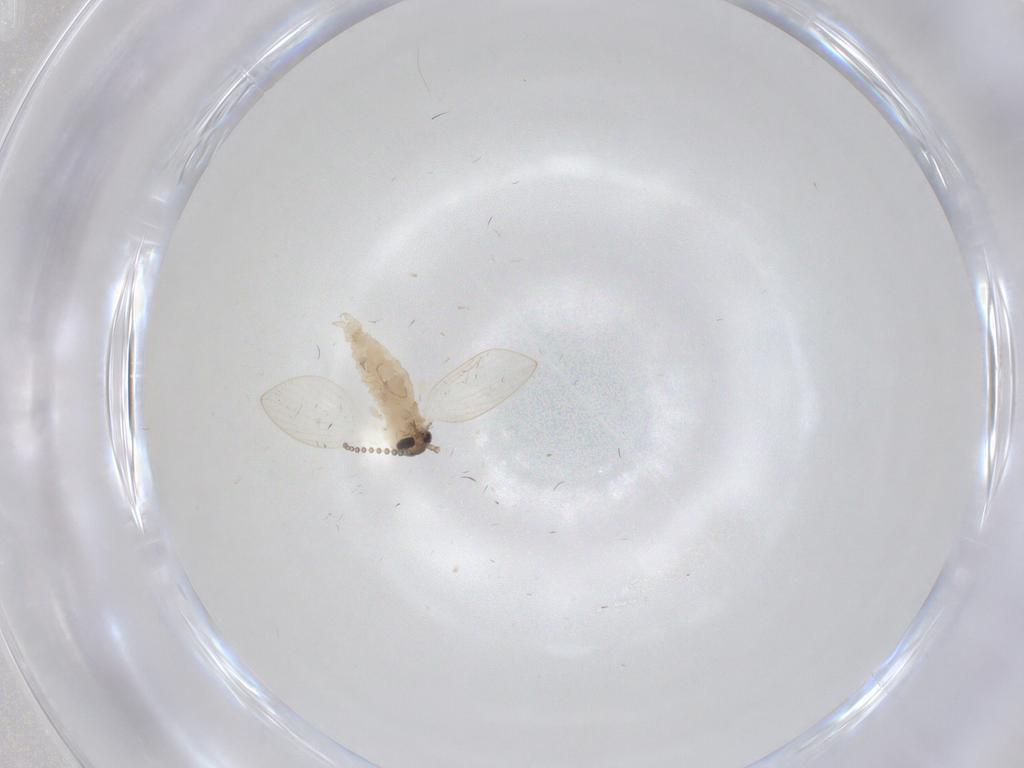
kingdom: Animalia
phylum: Arthropoda
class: Insecta
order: Diptera
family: Psychodidae
